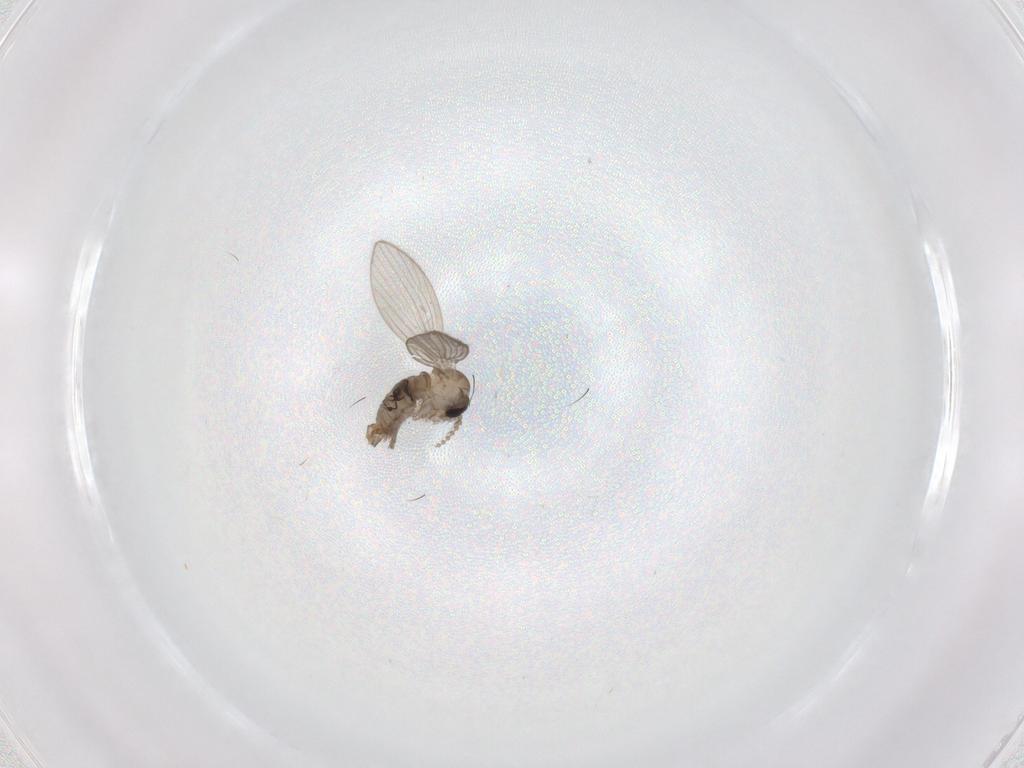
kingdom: Animalia
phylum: Arthropoda
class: Insecta
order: Diptera
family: Psychodidae
